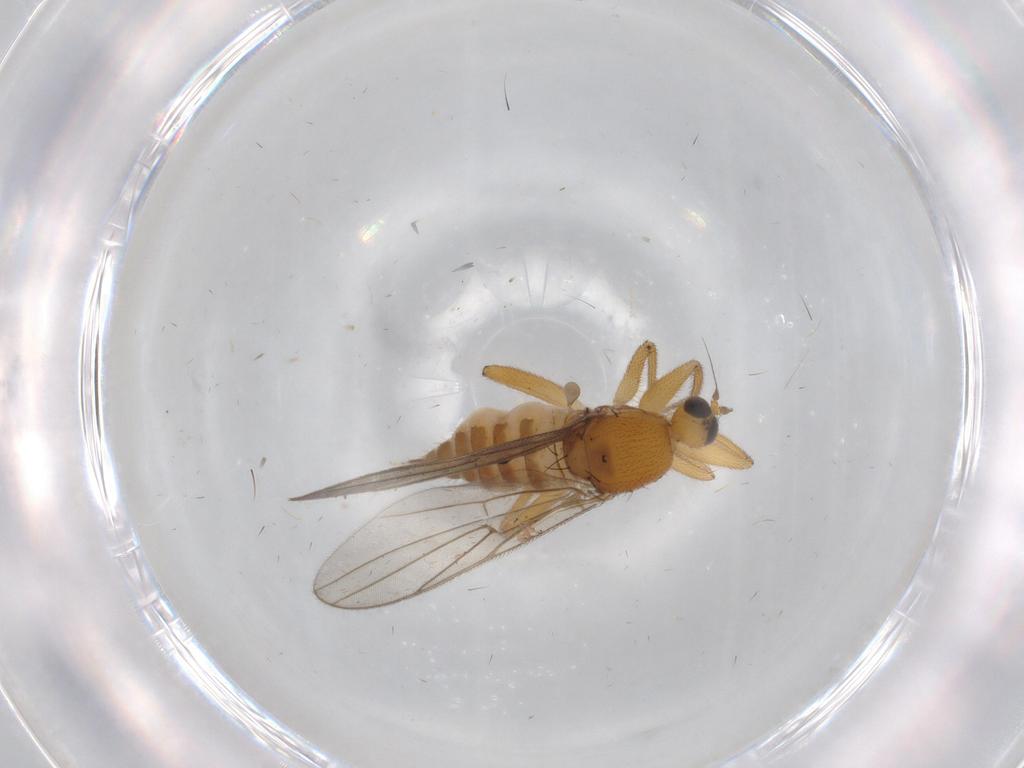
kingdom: Animalia
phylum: Arthropoda
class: Insecta
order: Diptera
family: Hybotidae
